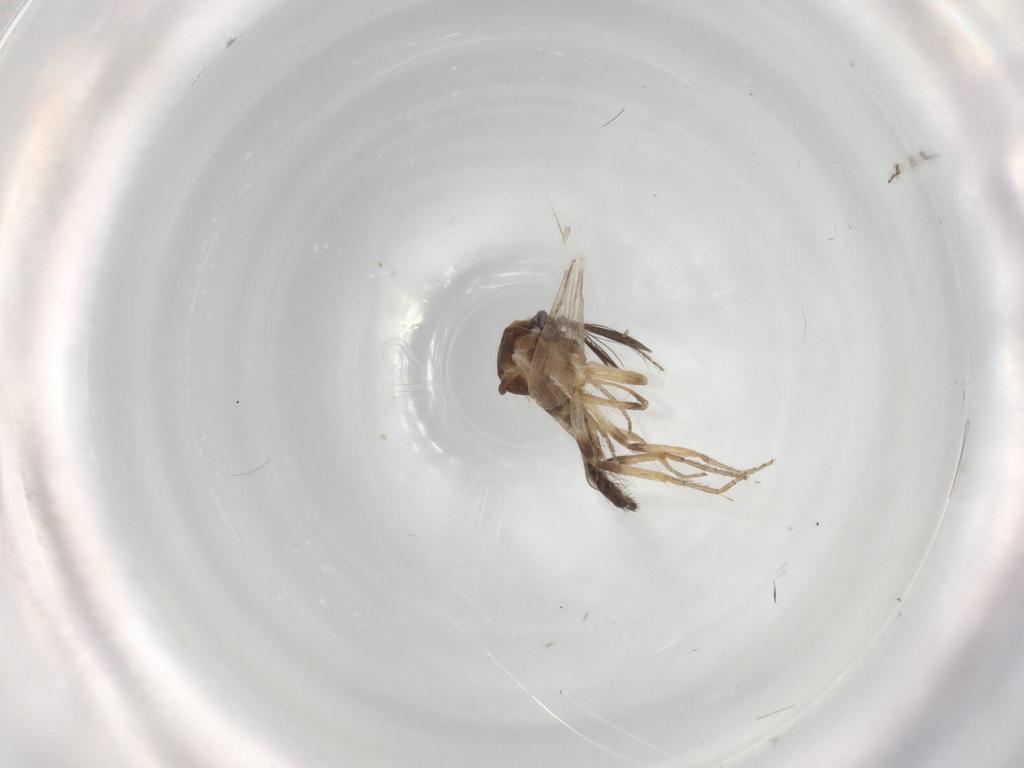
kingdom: Animalia
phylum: Arthropoda
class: Insecta
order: Diptera
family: Ceratopogonidae
